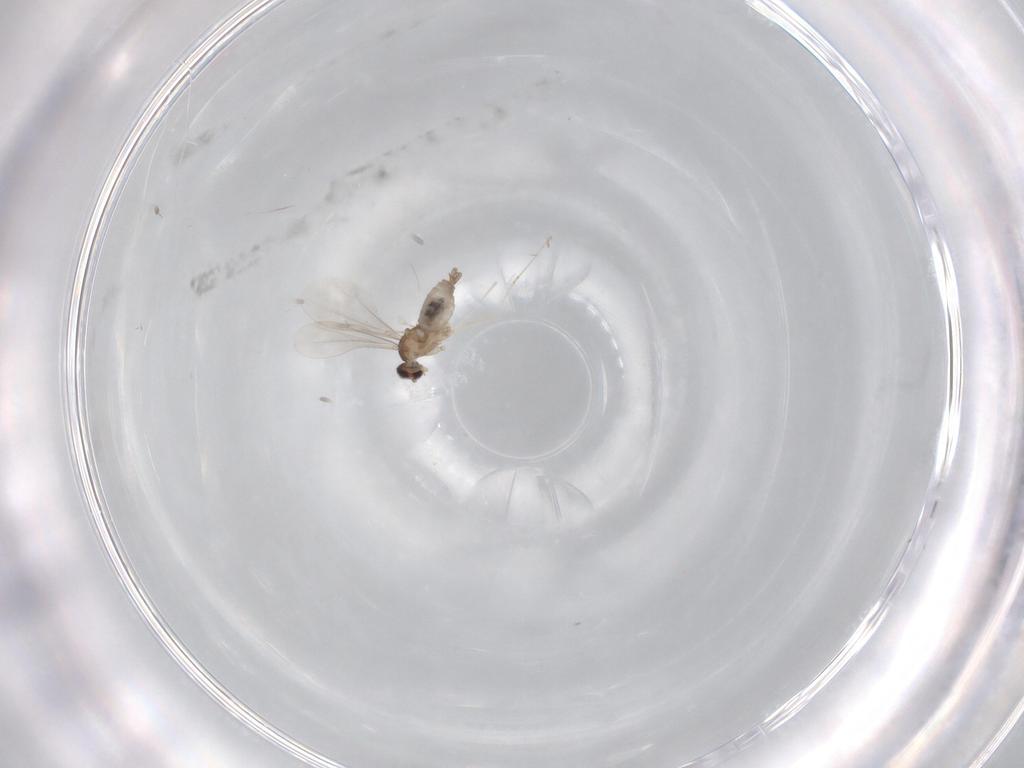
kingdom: Animalia
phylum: Arthropoda
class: Insecta
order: Diptera
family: Cecidomyiidae
